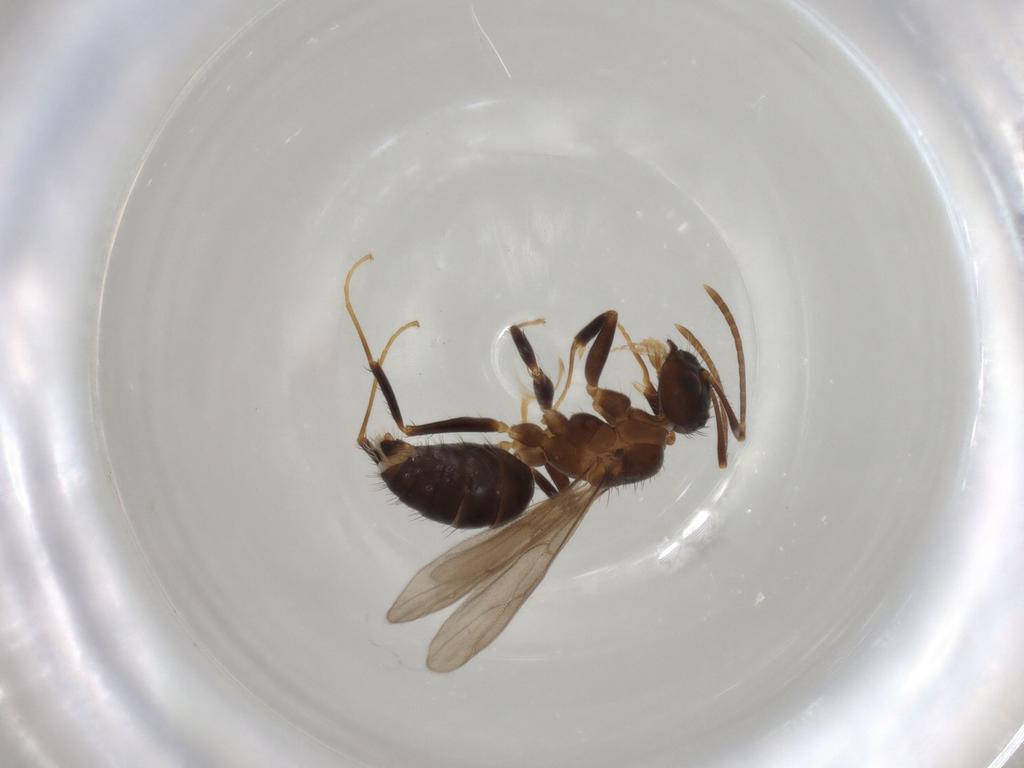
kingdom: Animalia
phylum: Arthropoda
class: Insecta
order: Hymenoptera
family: Formicidae
